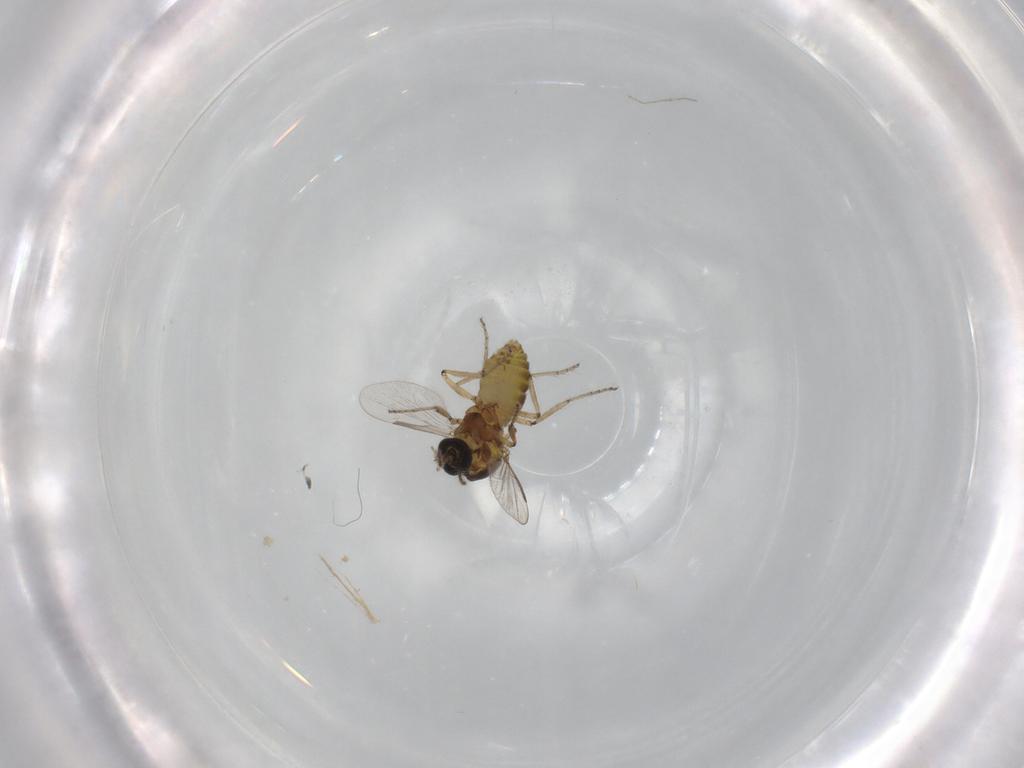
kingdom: Animalia
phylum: Arthropoda
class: Insecta
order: Diptera
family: Ceratopogonidae
